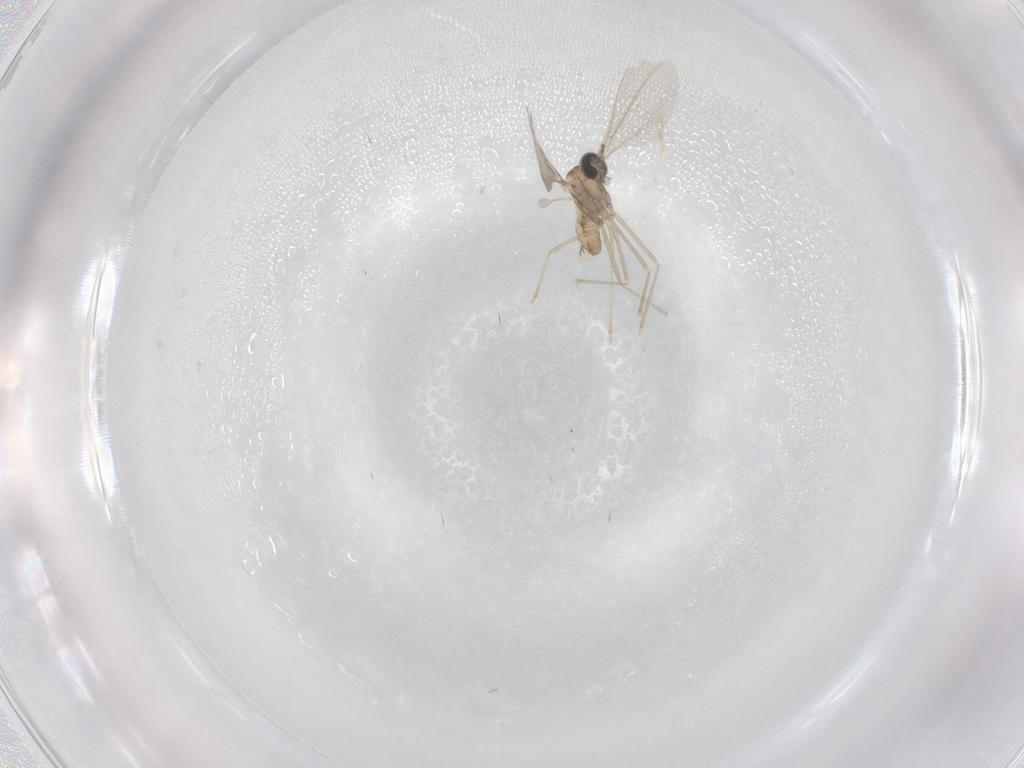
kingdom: Animalia
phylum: Arthropoda
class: Insecta
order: Diptera
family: Cecidomyiidae
